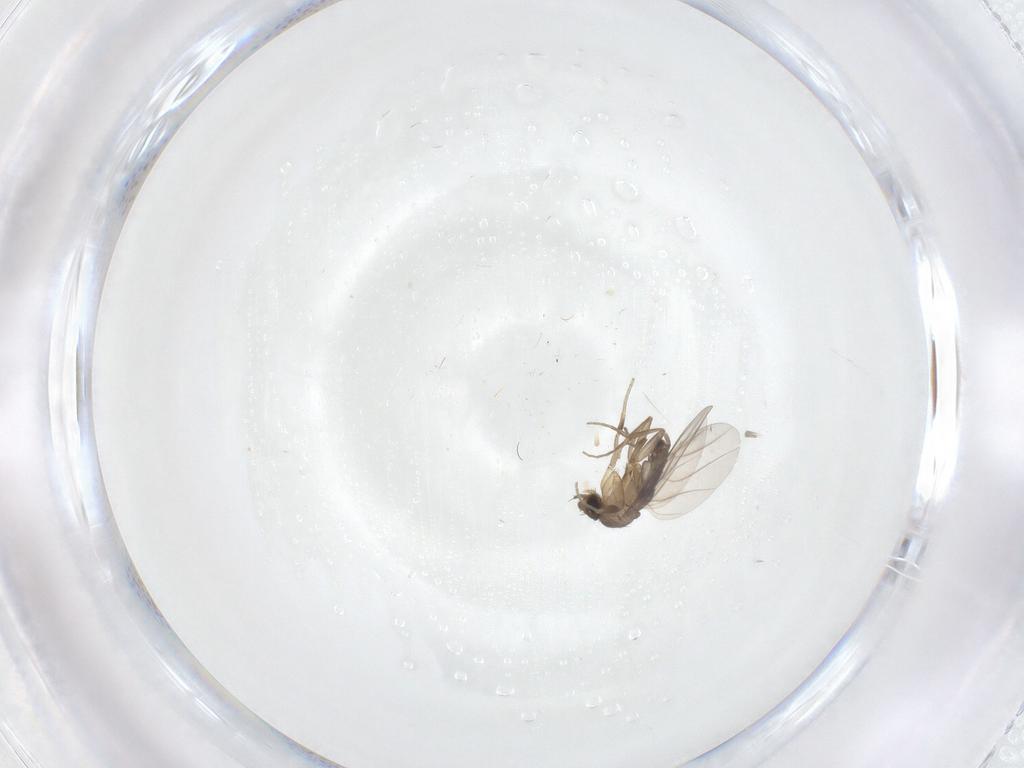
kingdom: Animalia
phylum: Arthropoda
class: Insecta
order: Diptera
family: Phoridae
